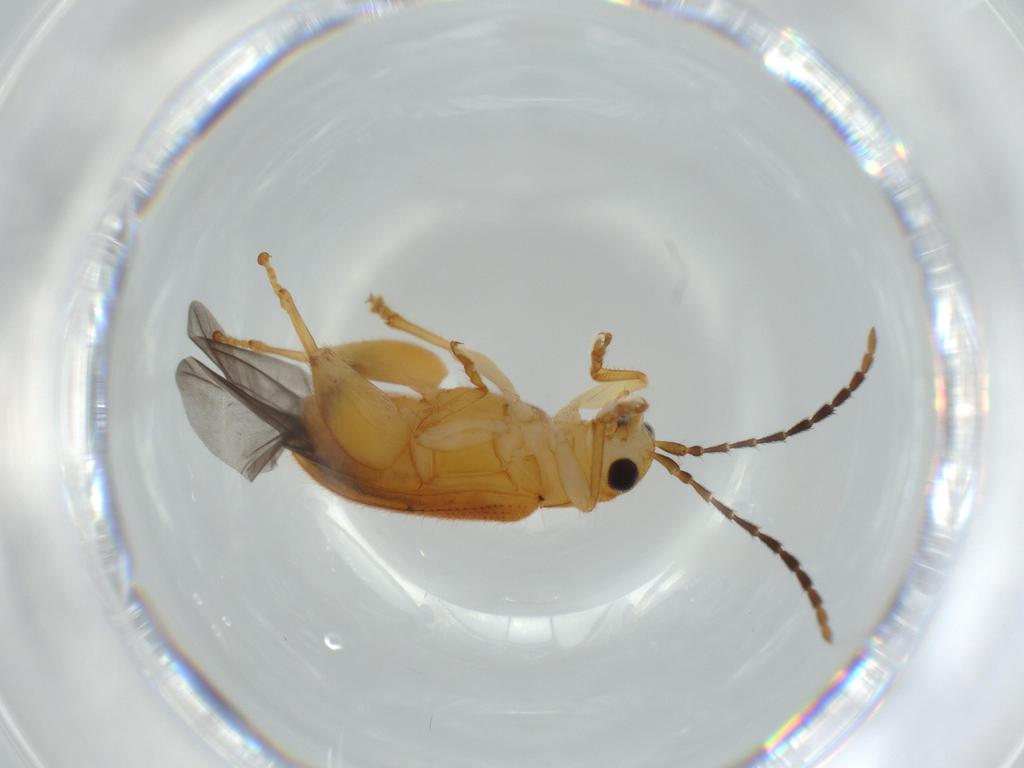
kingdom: Animalia
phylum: Arthropoda
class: Insecta
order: Coleoptera
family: Chrysomelidae
